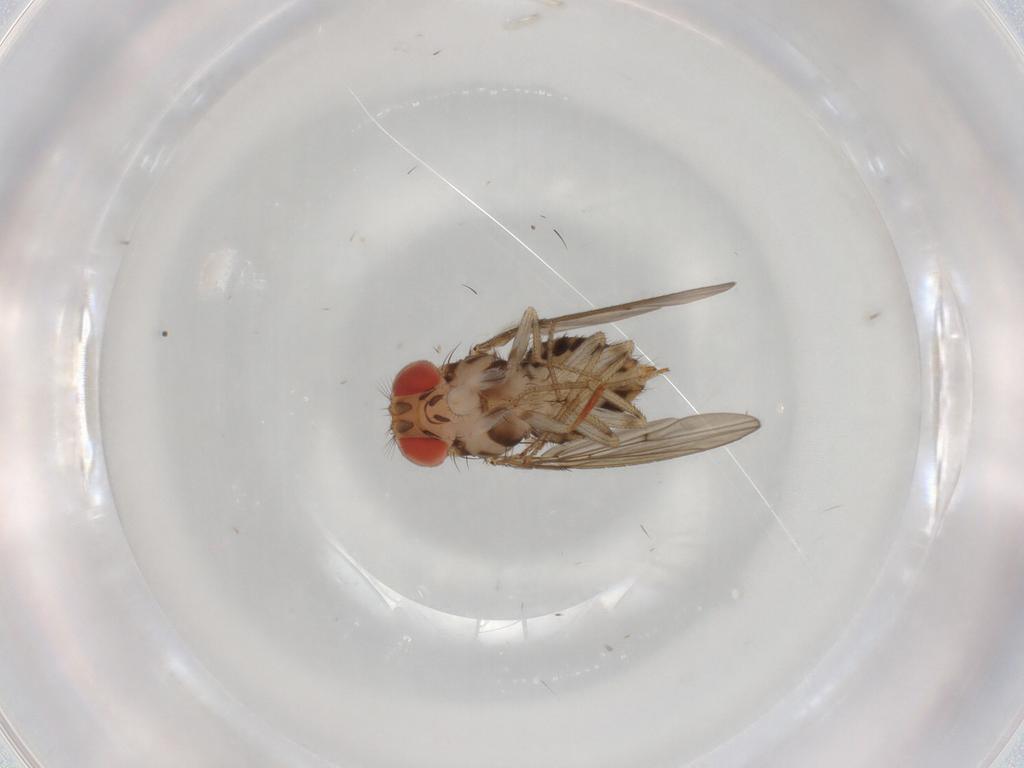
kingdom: Animalia
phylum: Arthropoda
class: Insecta
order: Diptera
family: Drosophilidae
